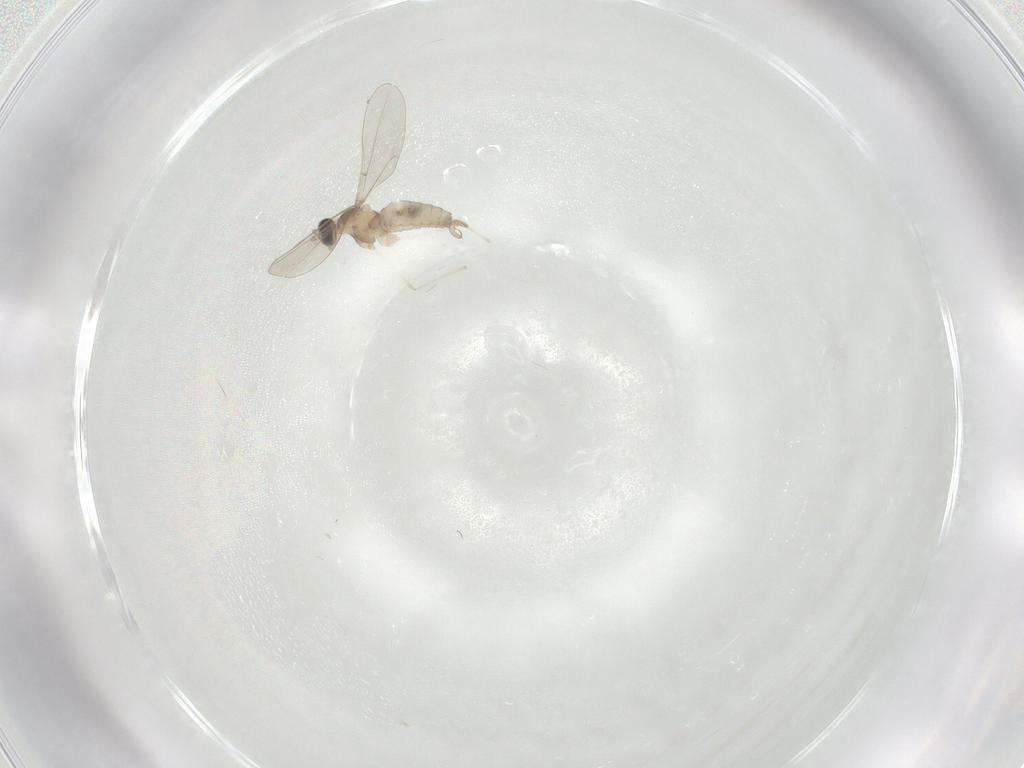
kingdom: Animalia
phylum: Arthropoda
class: Insecta
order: Diptera
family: Cecidomyiidae
